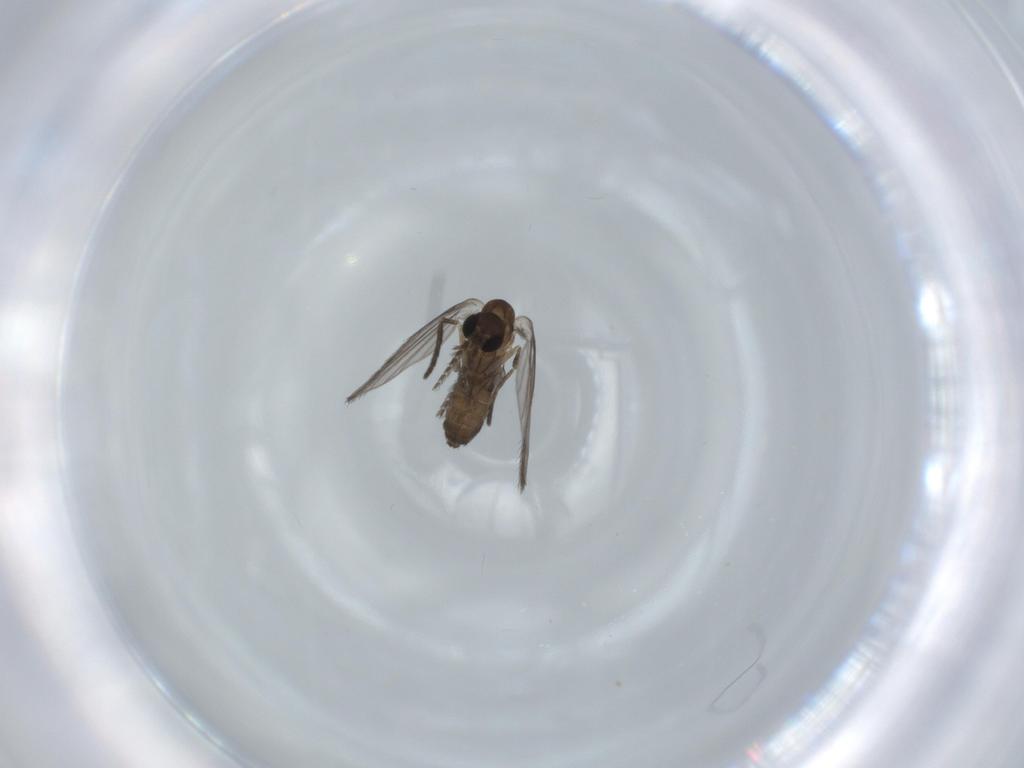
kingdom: Animalia
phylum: Arthropoda
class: Insecta
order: Diptera
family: Psychodidae
